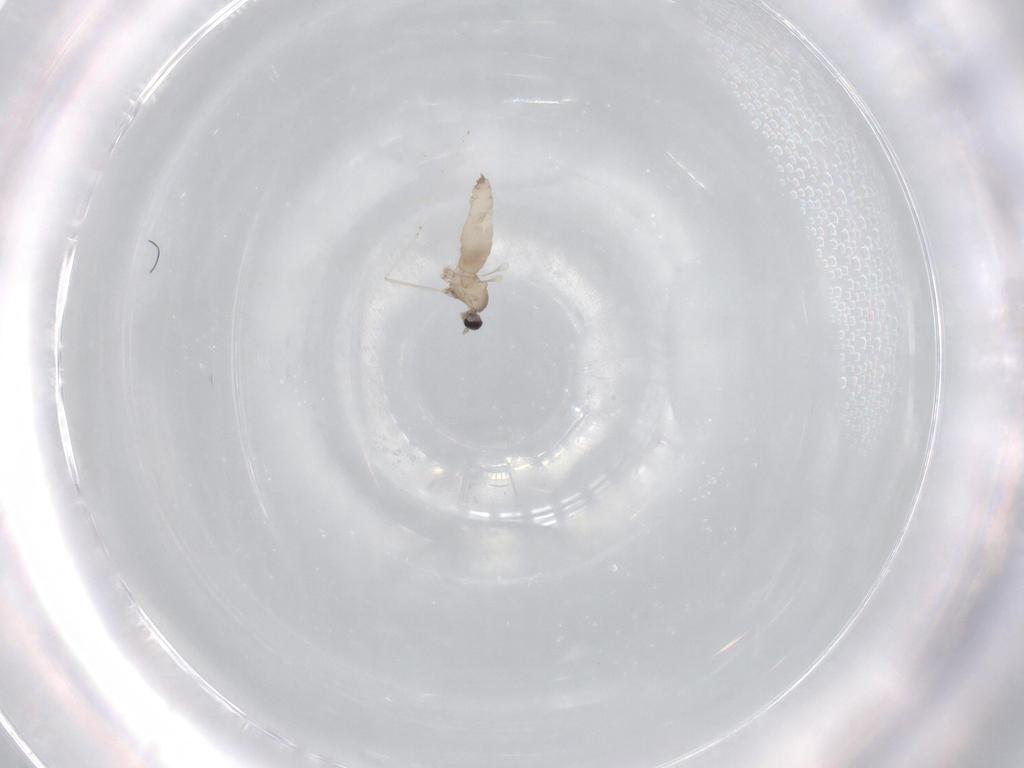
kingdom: Animalia
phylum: Arthropoda
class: Insecta
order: Diptera
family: Cecidomyiidae
